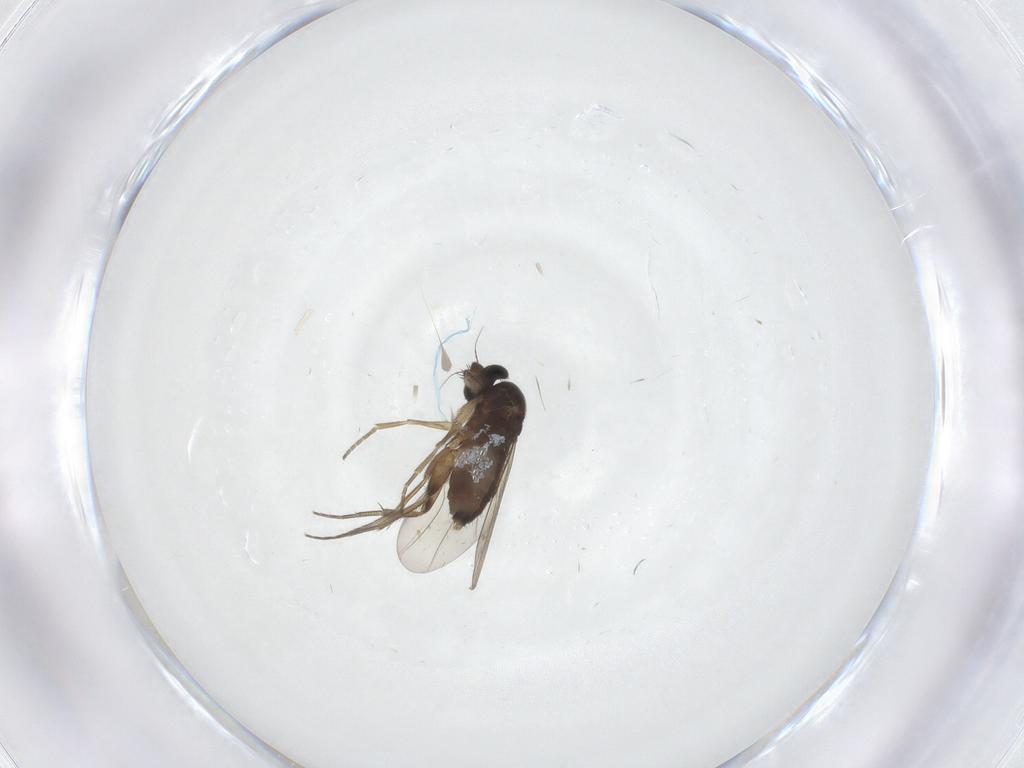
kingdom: Animalia
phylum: Arthropoda
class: Insecta
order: Diptera
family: Phoridae
